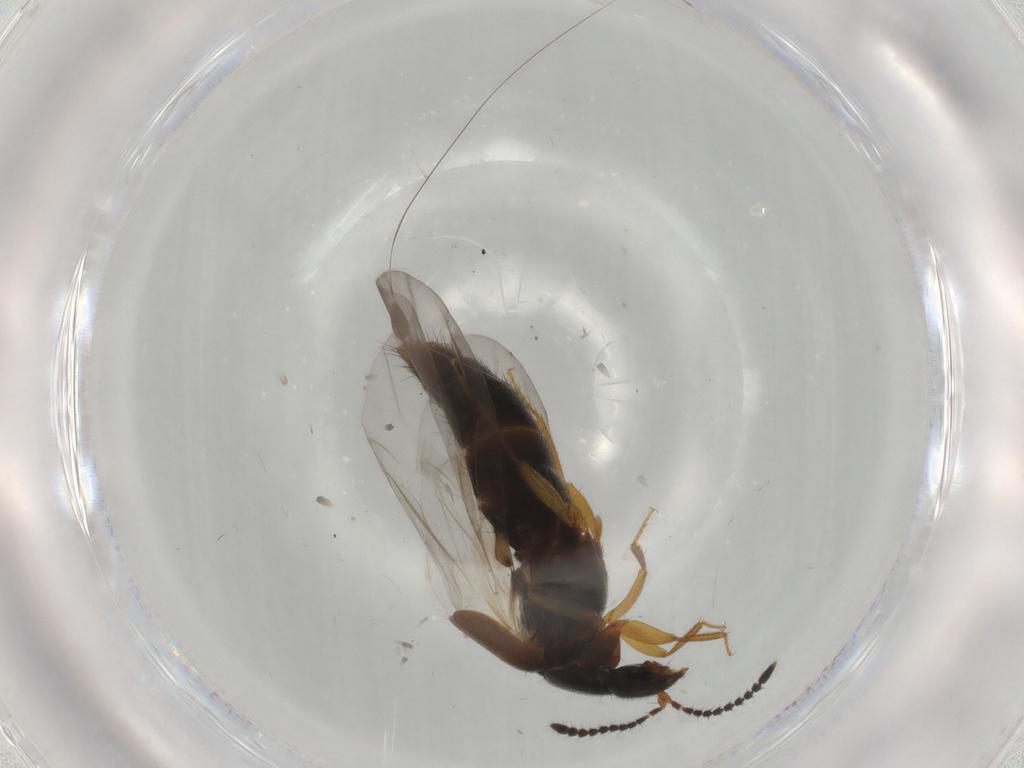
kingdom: Animalia
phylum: Arthropoda
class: Insecta
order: Coleoptera
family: Staphylinidae
